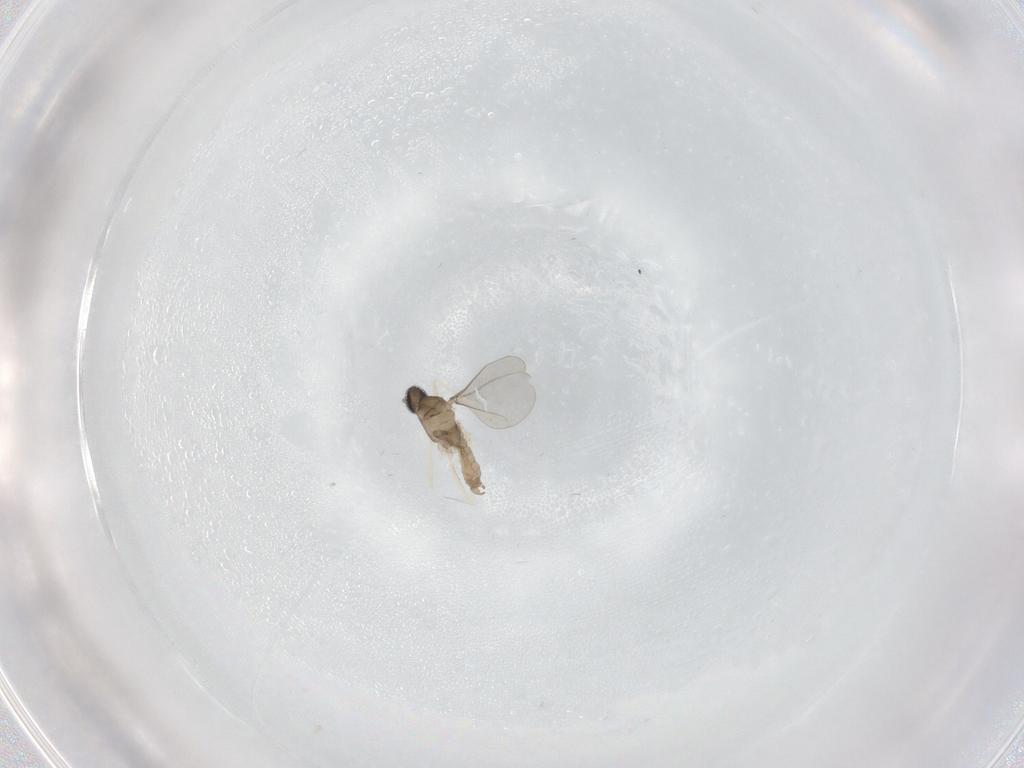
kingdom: Animalia
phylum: Arthropoda
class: Insecta
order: Diptera
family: Cecidomyiidae
